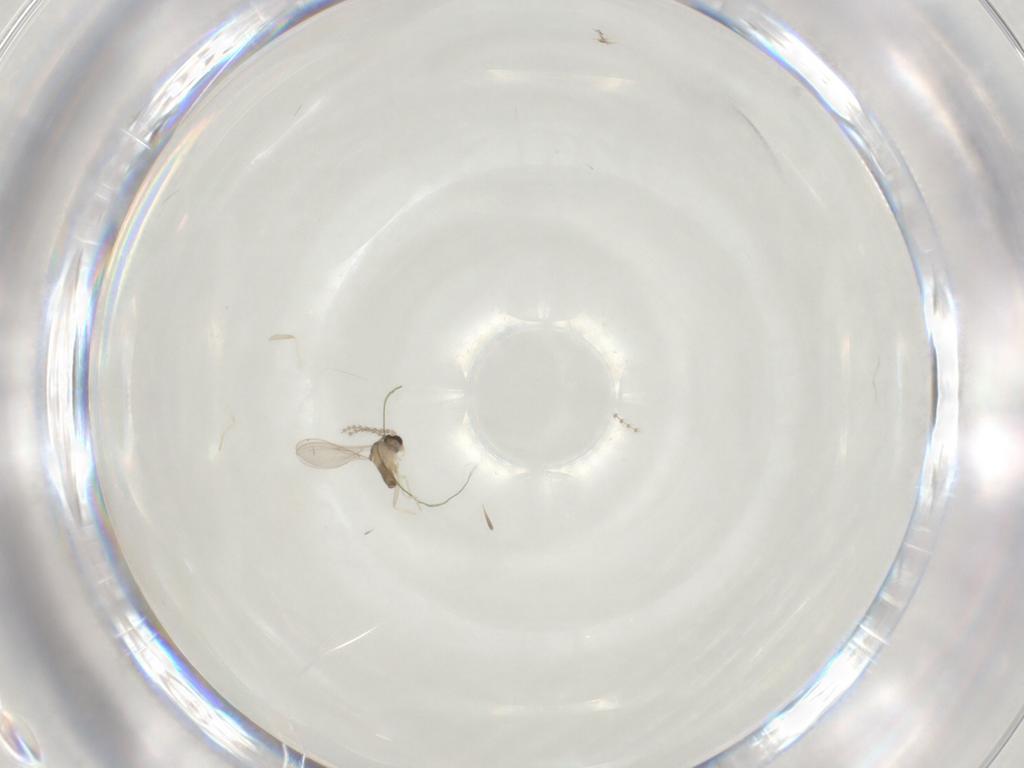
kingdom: Animalia
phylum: Arthropoda
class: Insecta
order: Diptera
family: Cecidomyiidae
